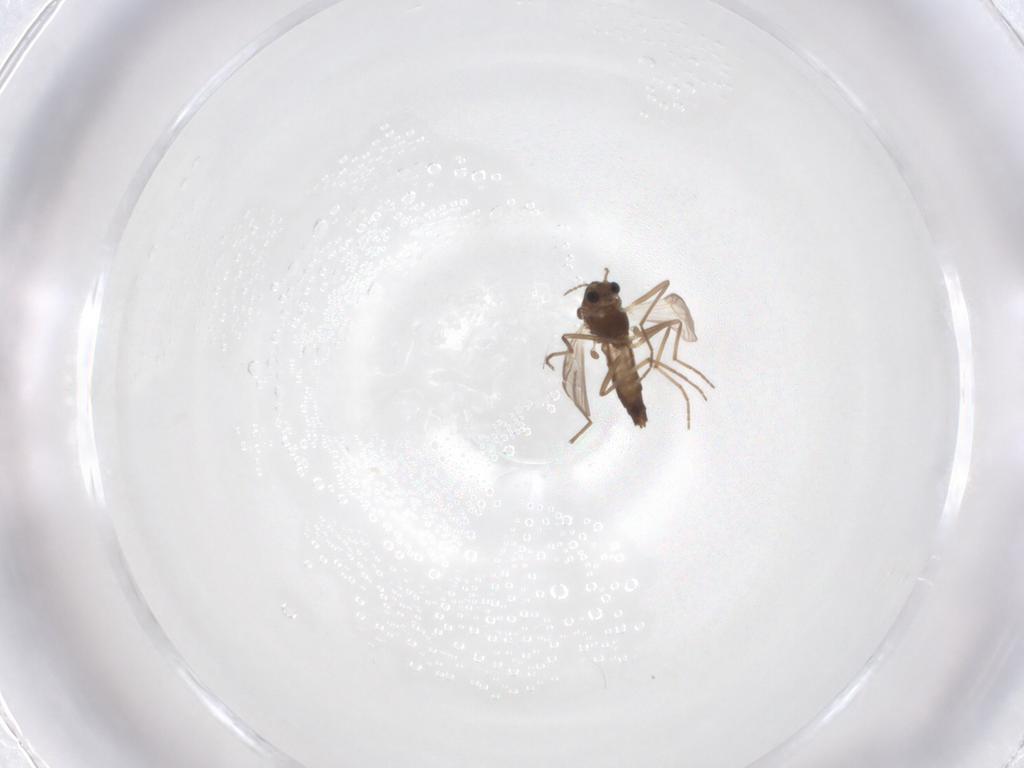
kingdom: Animalia
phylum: Arthropoda
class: Insecta
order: Diptera
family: Chironomidae
